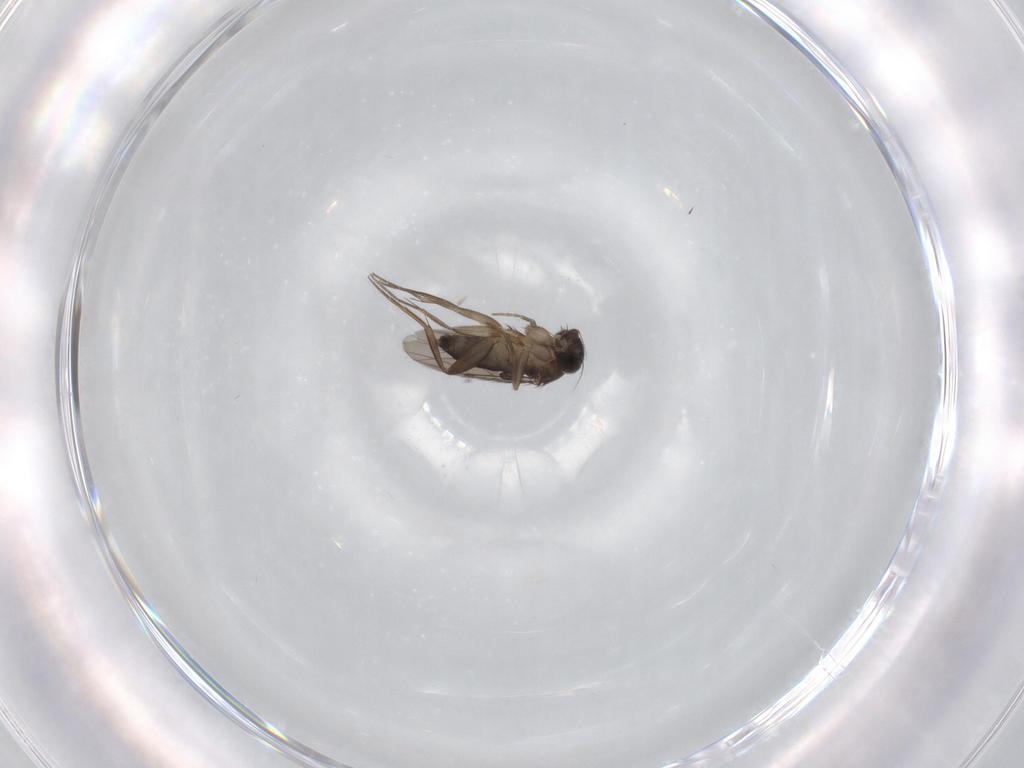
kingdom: Animalia
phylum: Arthropoda
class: Insecta
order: Diptera
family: Phoridae
